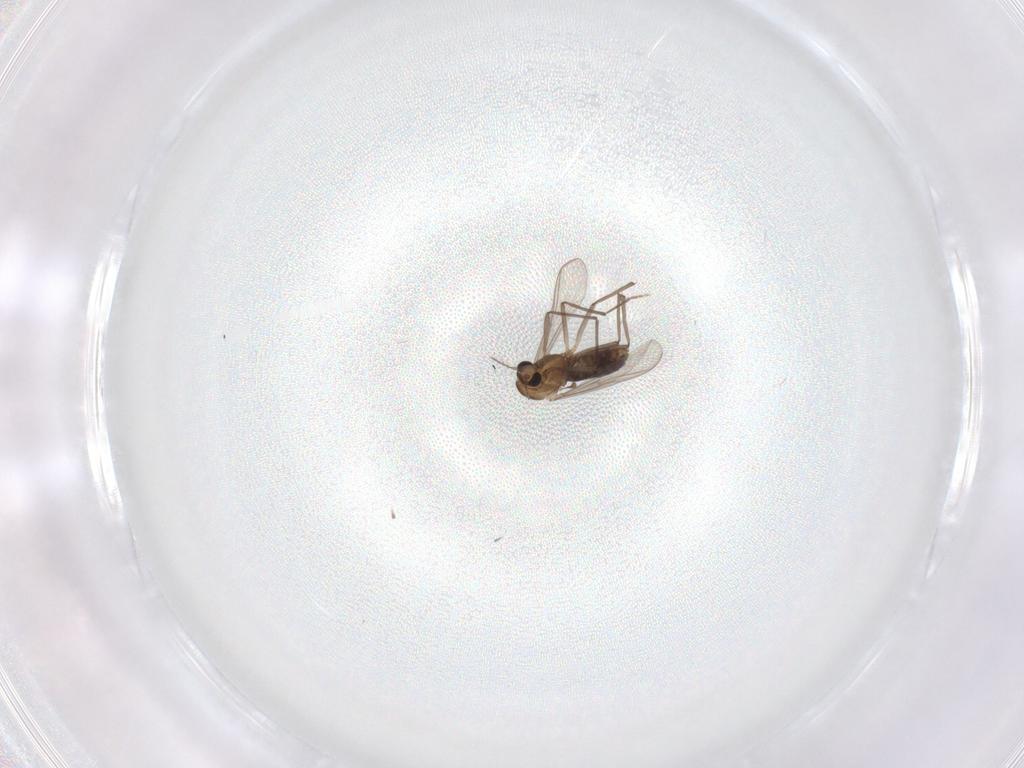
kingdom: Animalia
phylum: Arthropoda
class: Insecta
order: Diptera
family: Chironomidae
